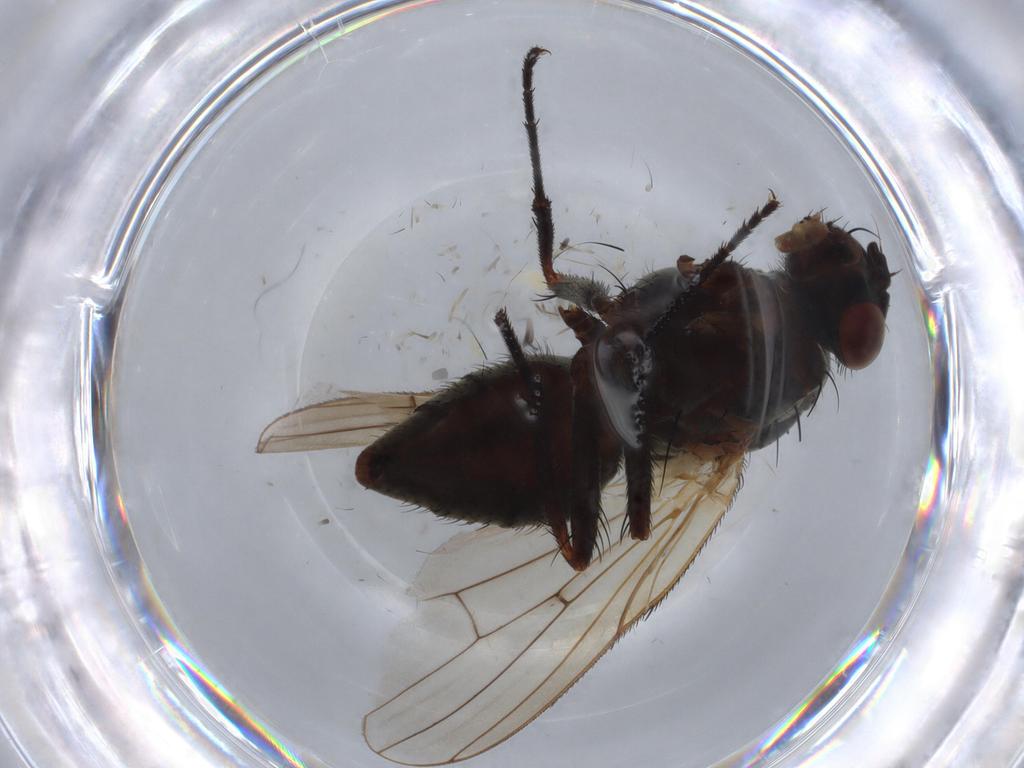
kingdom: Animalia
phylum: Arthropoda
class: Insecta
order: Diptera
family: Anthomyiidae
